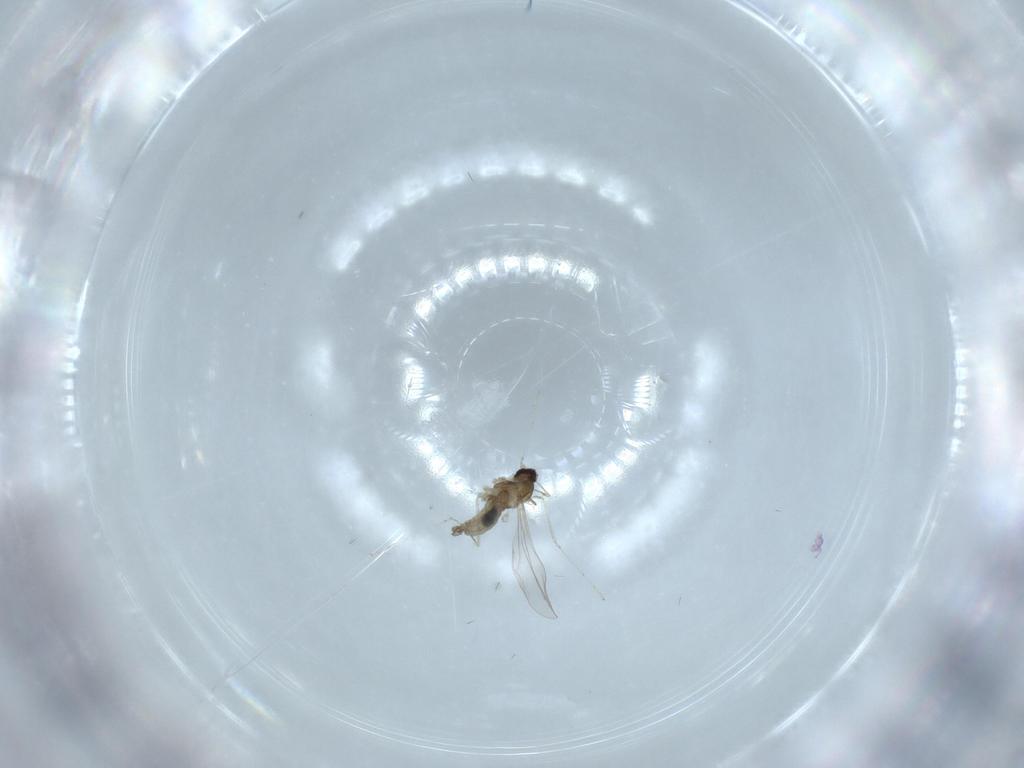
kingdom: Animalia
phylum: Arthropoda
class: Insecta
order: Diptera
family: Cecidomyiidae
